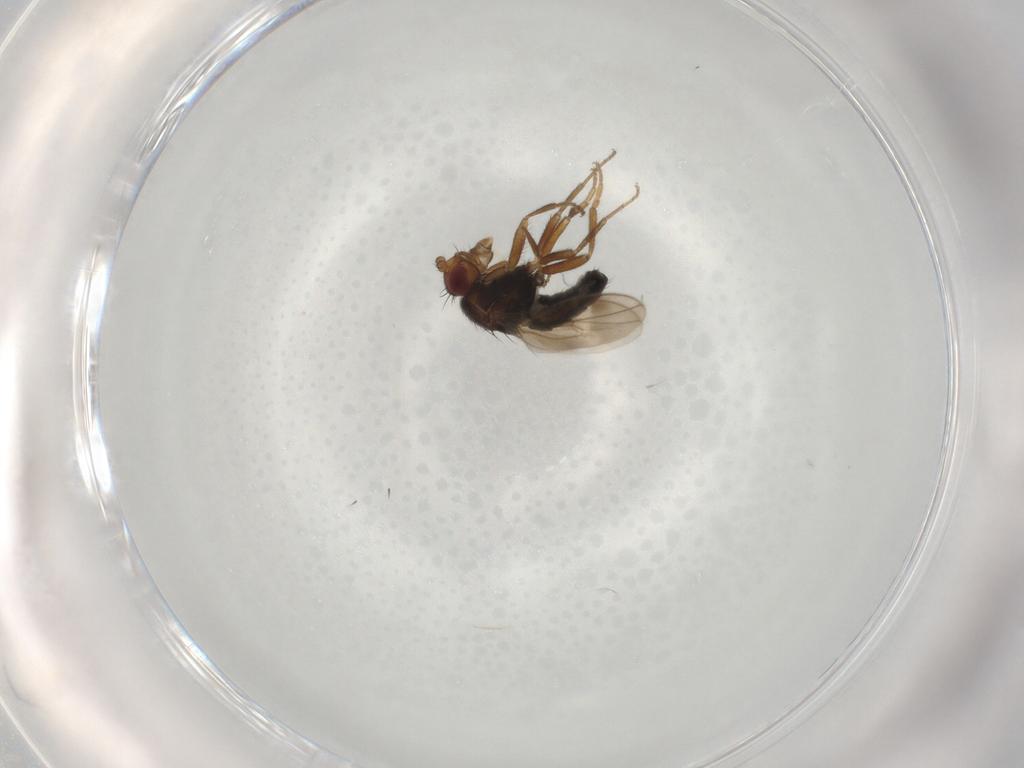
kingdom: Animalia
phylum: Arthropoda
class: Insecta
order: Diptera
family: Sphaeroceridae
